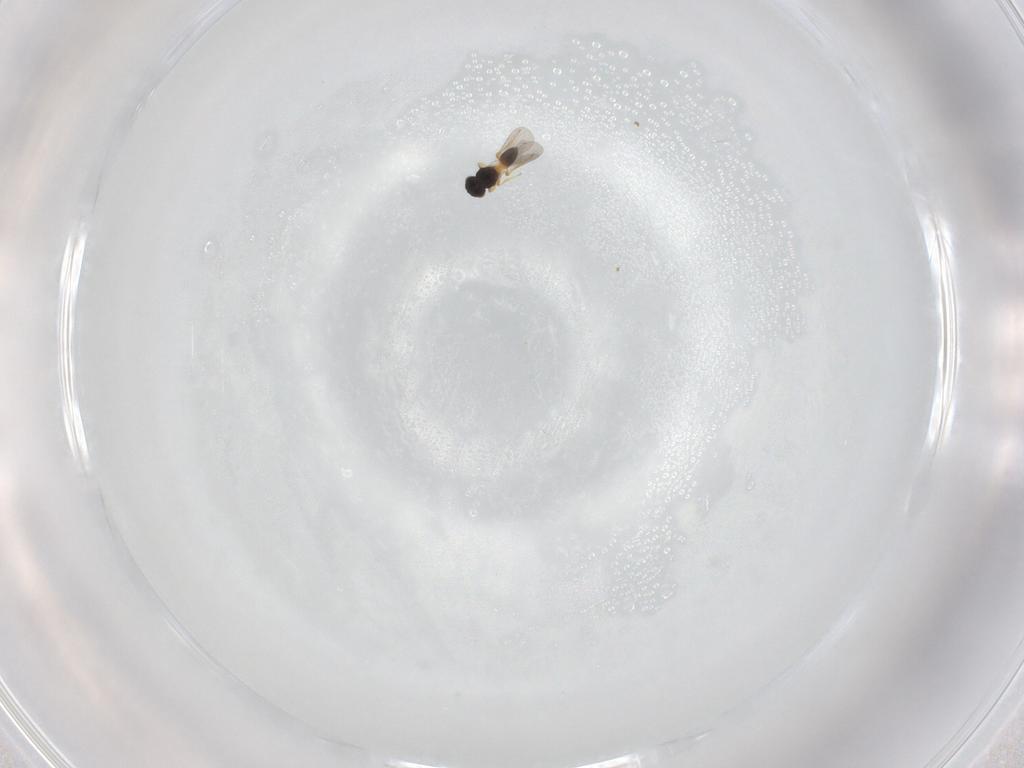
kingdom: Animalia
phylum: Arthropoda
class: Insecta
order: Hymenoptera
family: Platygastridae
